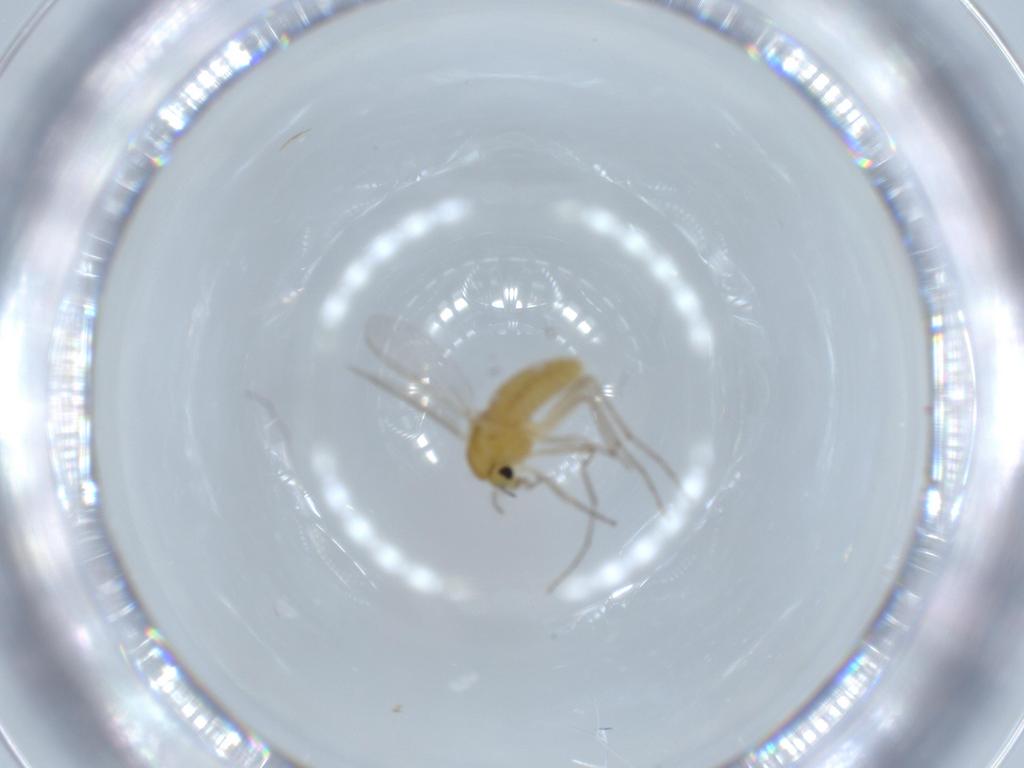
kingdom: Animalia
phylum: Arthropoda
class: Insecta
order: Diptera
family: Chironomidae
